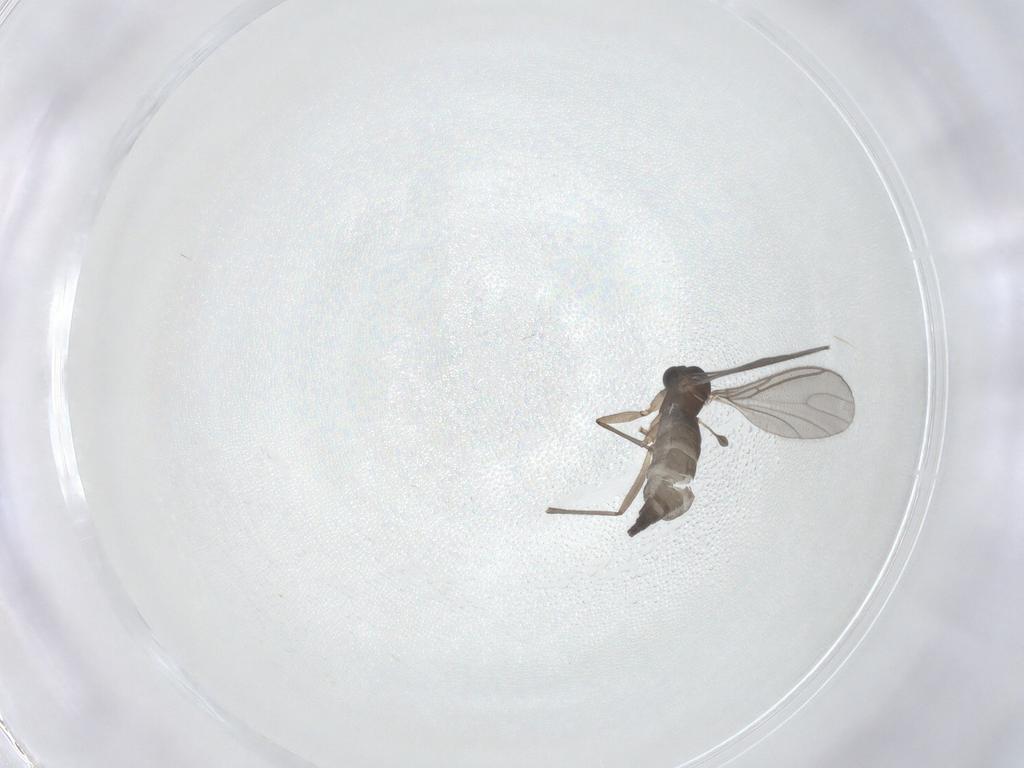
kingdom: Animalia
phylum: Arthropoda
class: Insecta
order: Diptera
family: Sciaridae
